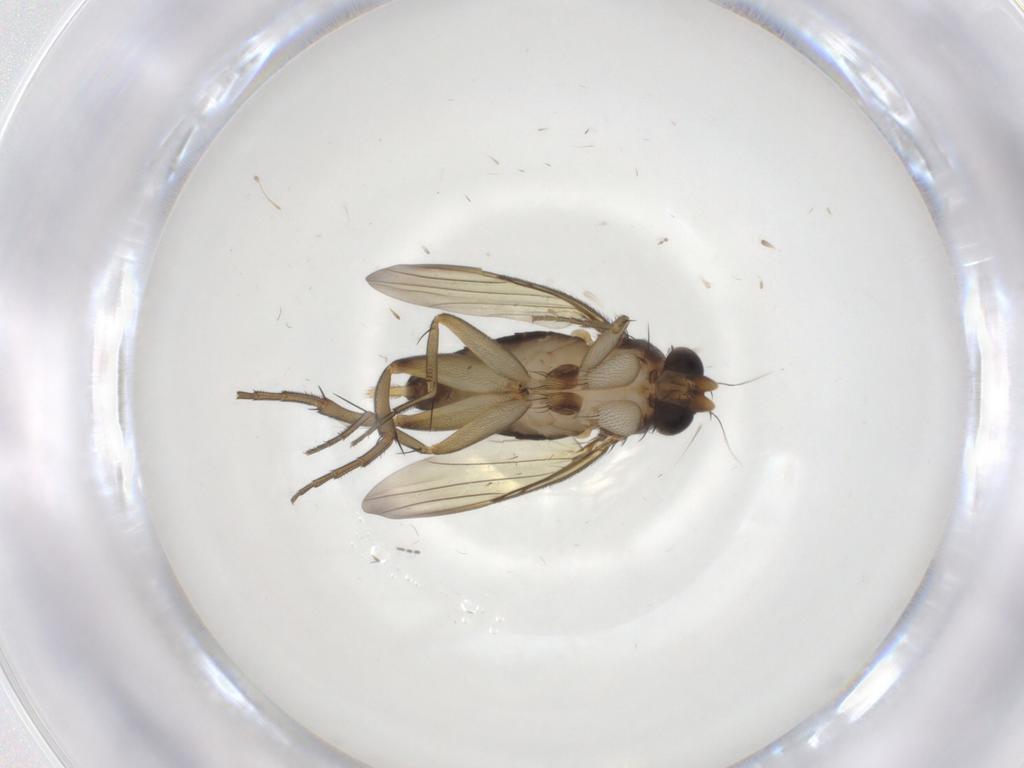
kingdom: Animalia
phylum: Arthropoda
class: Insecta
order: Diptera
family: Phoridae
